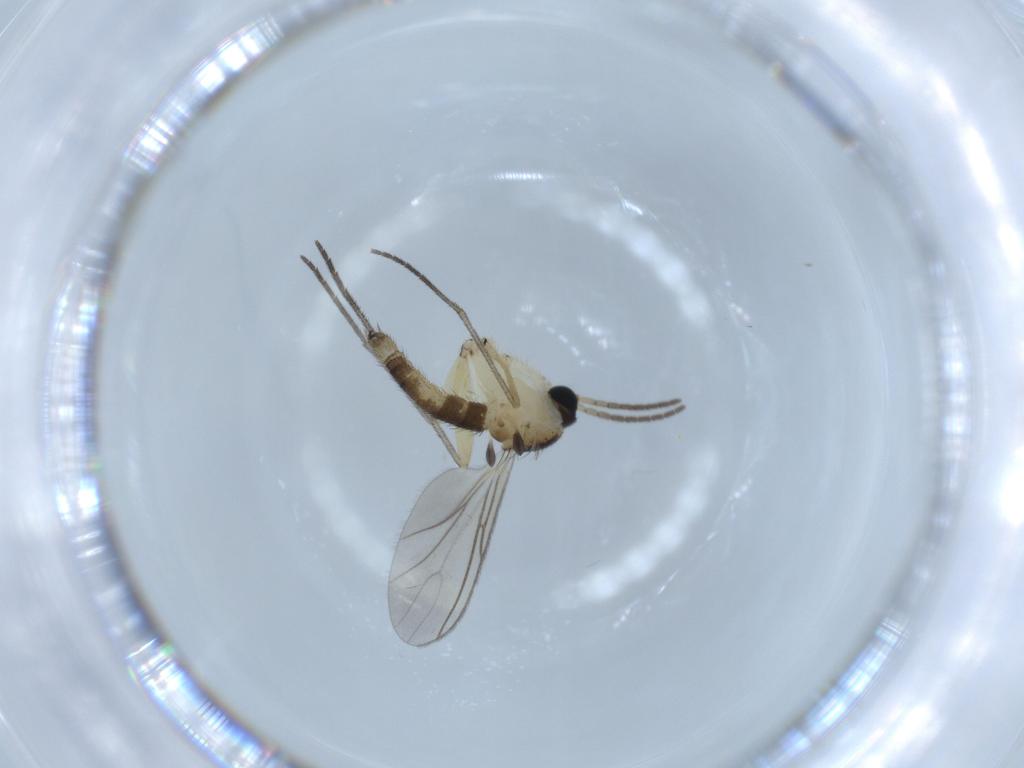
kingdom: Animalia
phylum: Arthropoda
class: Insecta
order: Diptera
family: Sciaridae
